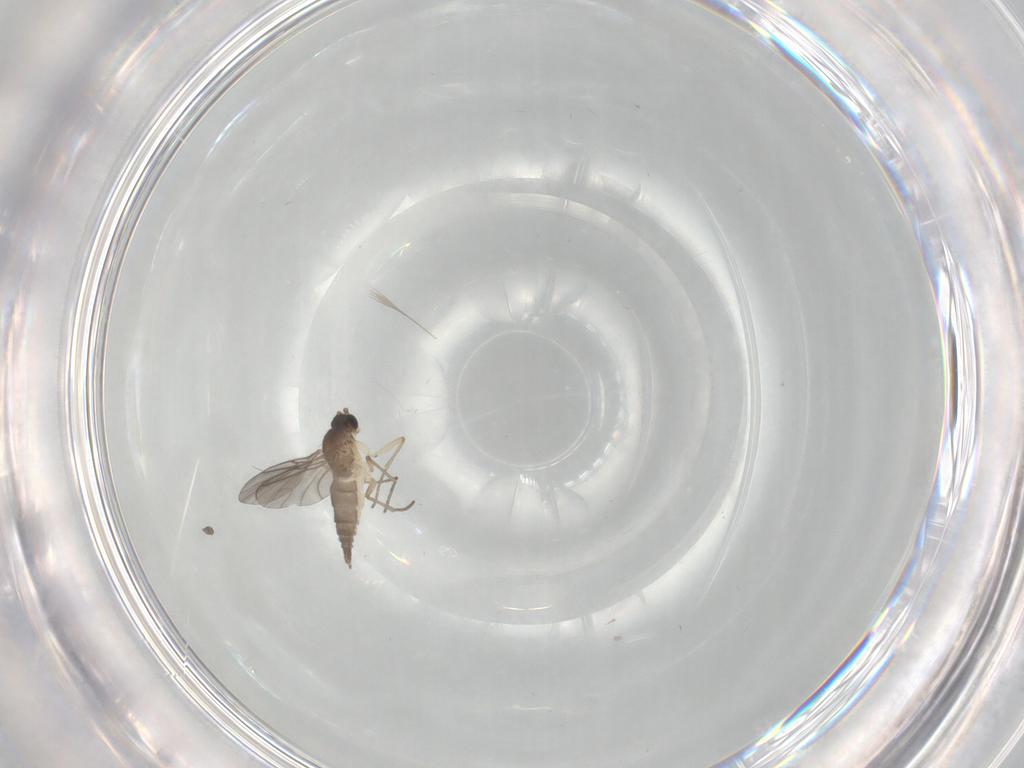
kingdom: Animalia
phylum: Arthropoda
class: Insecta
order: Diptera
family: Sciaridae
